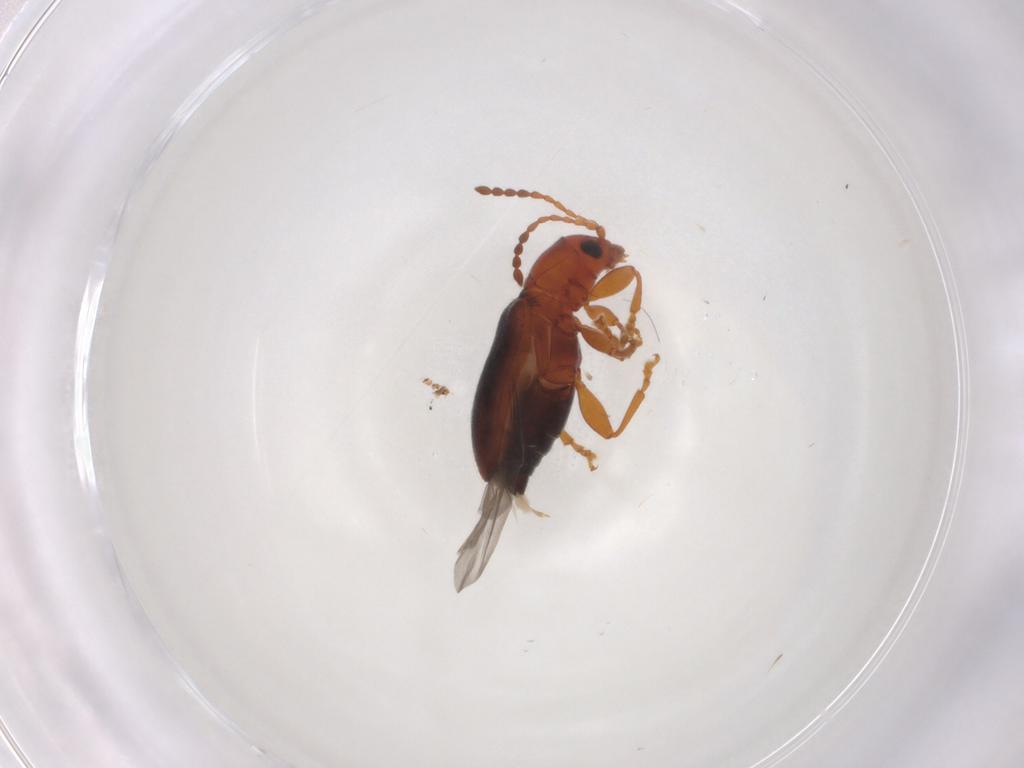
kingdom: Animalia
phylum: Arthropoda
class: Insecta
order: Coleoptera
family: Chrysomelidae
